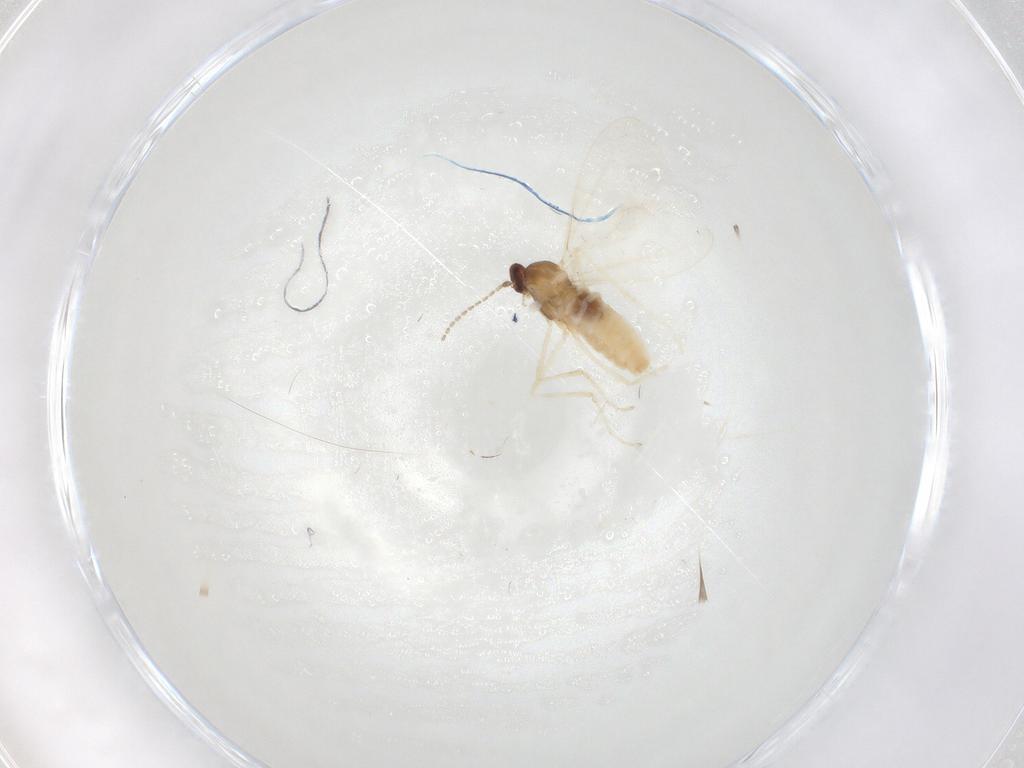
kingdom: Animalia
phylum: Arthropoda
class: Insecta
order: Diptera
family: Cecidomyiidae
